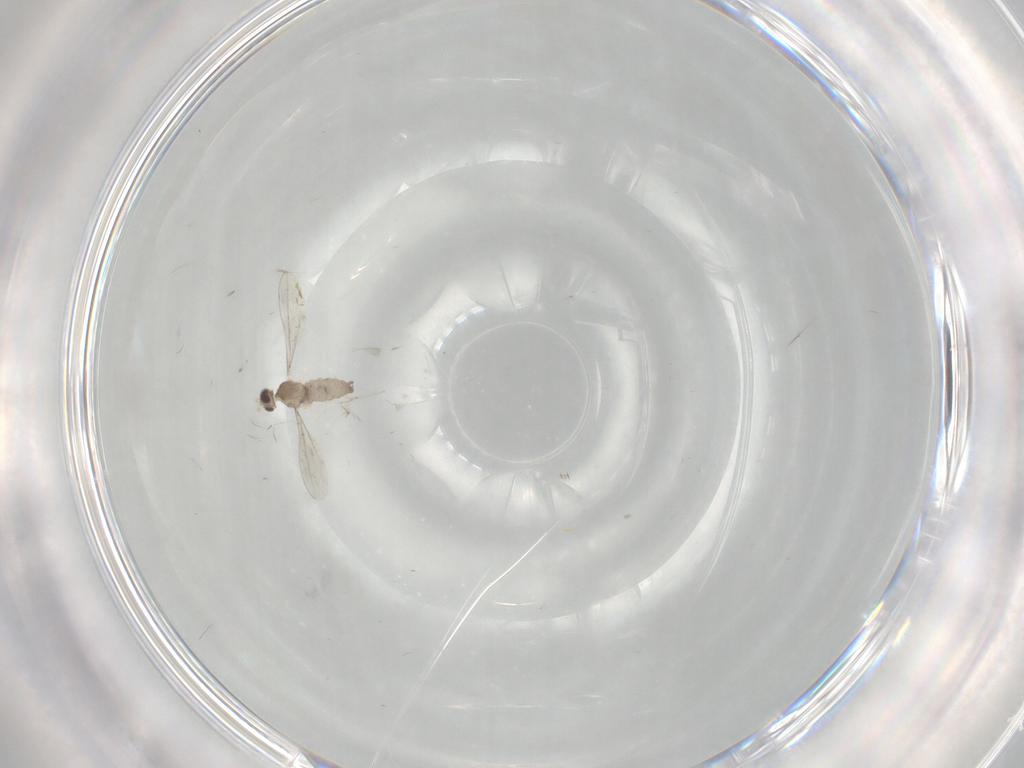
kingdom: Animalia
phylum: Arthropoda
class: Insecta
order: Diptera
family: Cecidomyiidae
